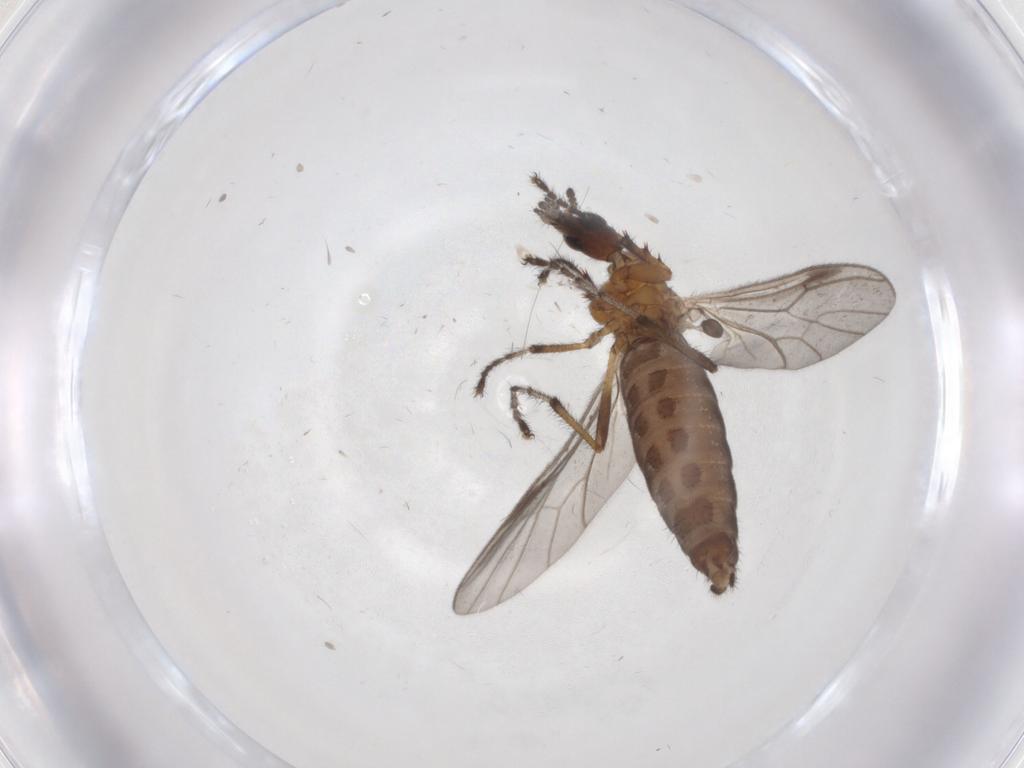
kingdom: Animalia
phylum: Arthropoda
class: Insecta
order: Diptera
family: Bibionidae
